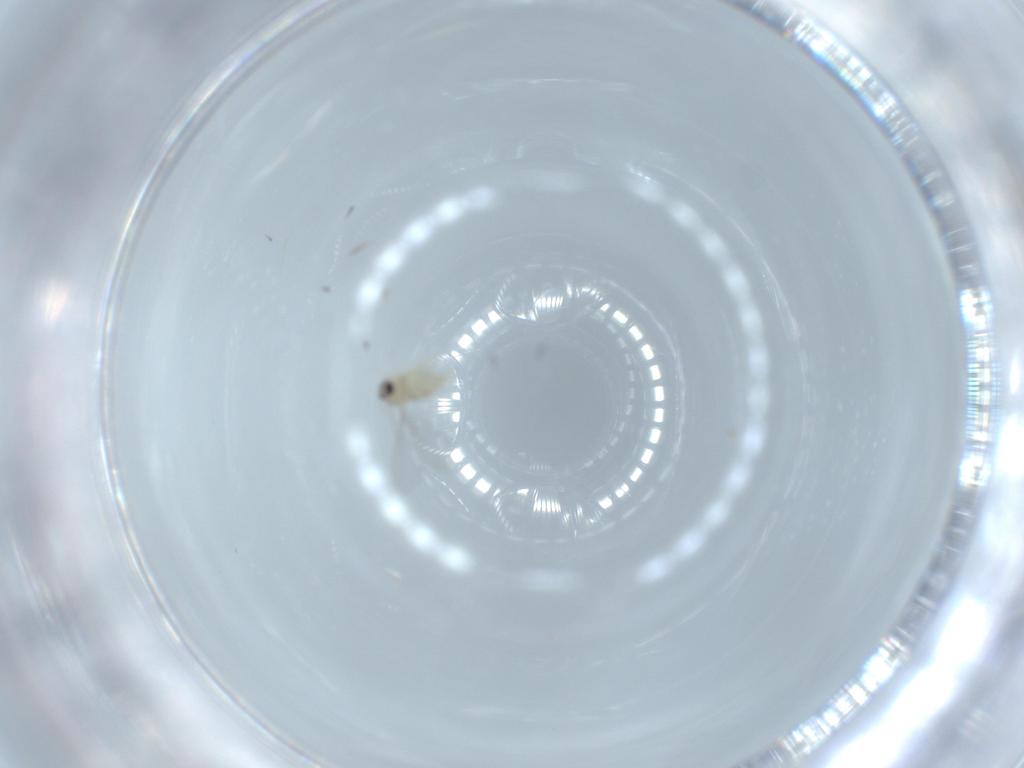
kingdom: Animalia
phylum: Arthropoda
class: Insecta
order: Diptera
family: Cecidomyiidae
